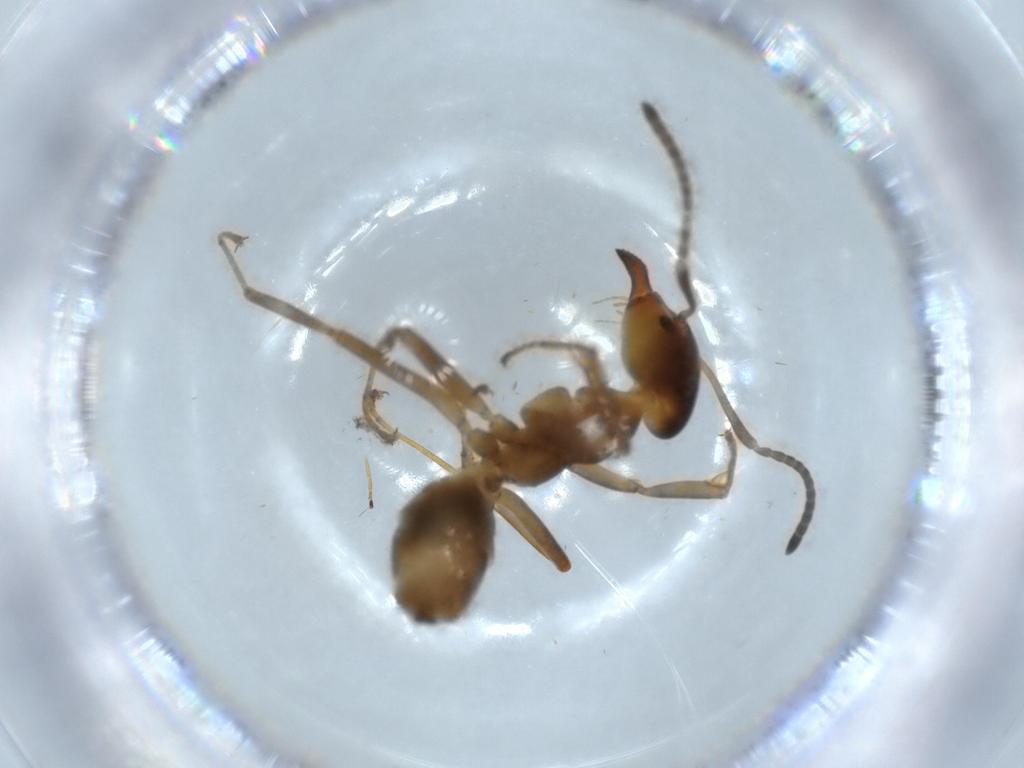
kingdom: Animalia
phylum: Arthropoda
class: Insecta
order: Hymenoptera
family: Formicidae
